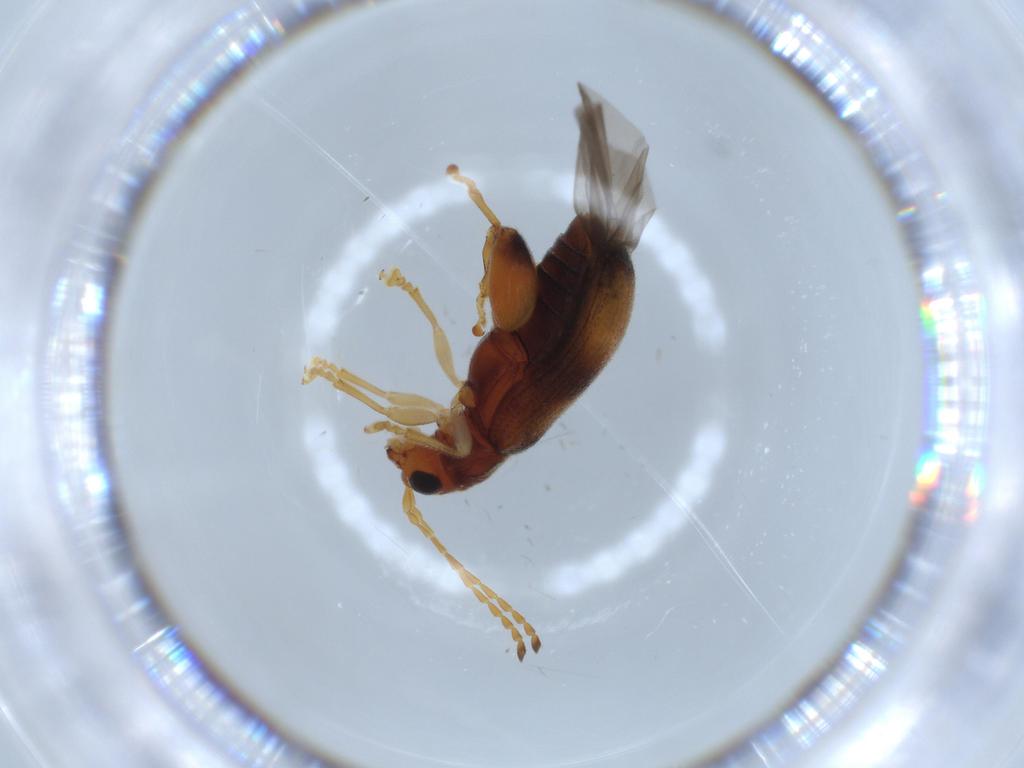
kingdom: Animalia
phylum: Arthropoda
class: Insecta
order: Coleoptera
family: Chrysomelidae
